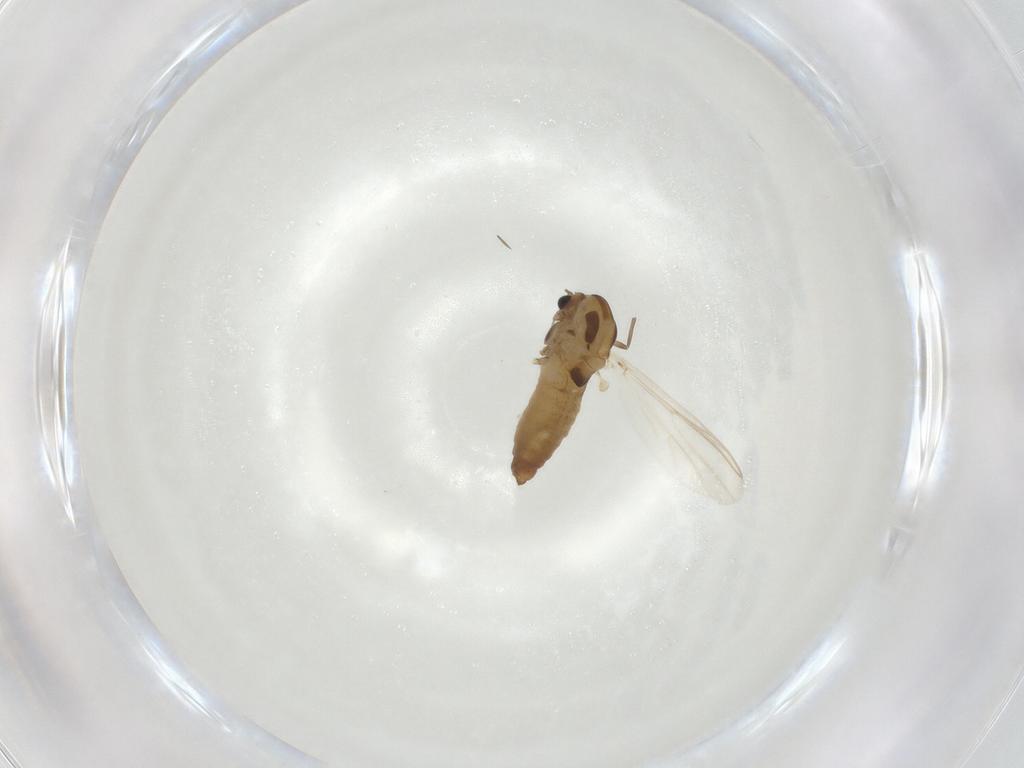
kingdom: Animalia
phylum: Arthropoda
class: Insecta
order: Diptera
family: Chironomidae
